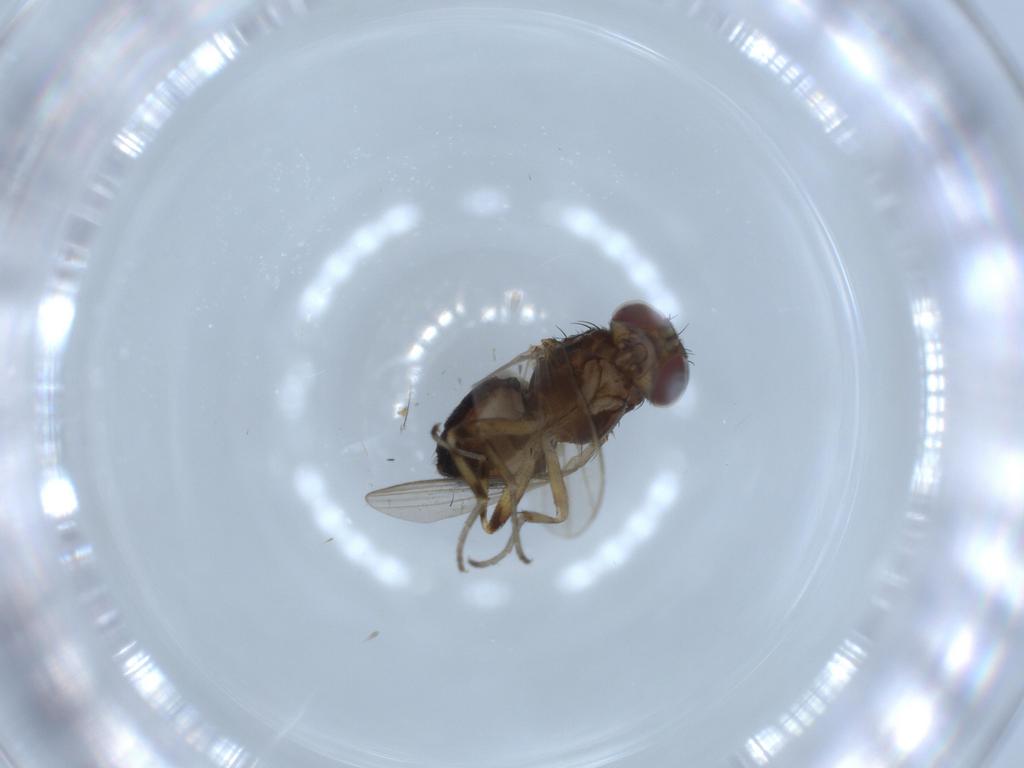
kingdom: Animalia
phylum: Arthropoda
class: Insecta
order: Diptera
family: Heleomyzidae
